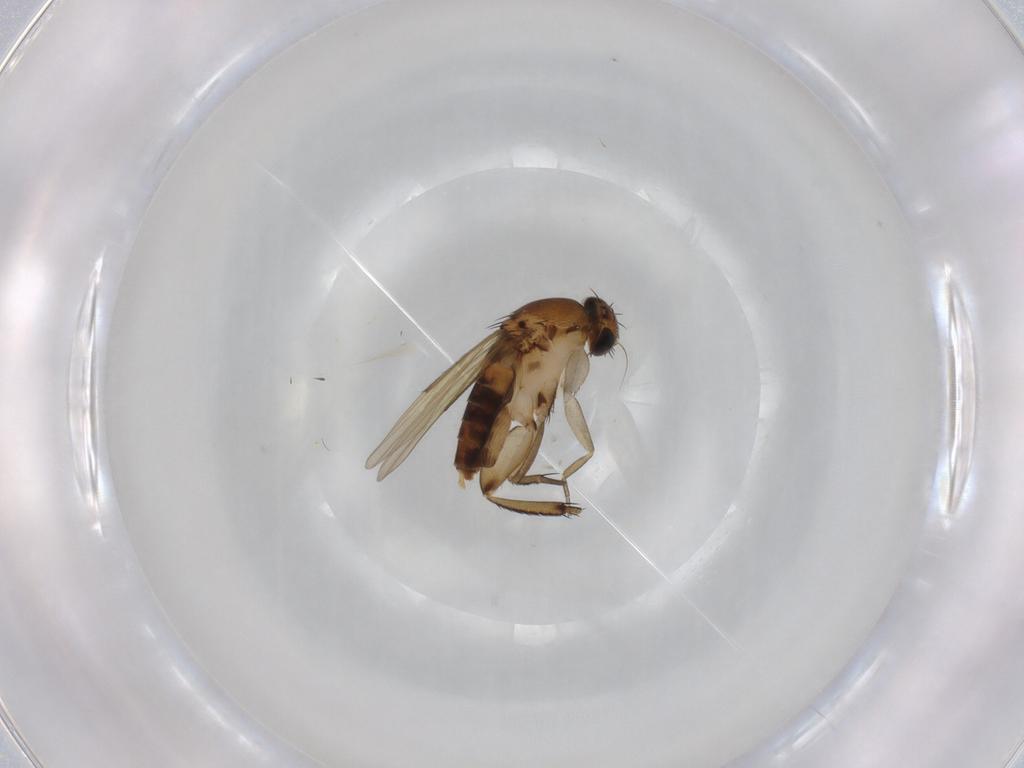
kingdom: Animalia
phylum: Arthropoda
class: Insecta
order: Diptera
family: Phoridae
